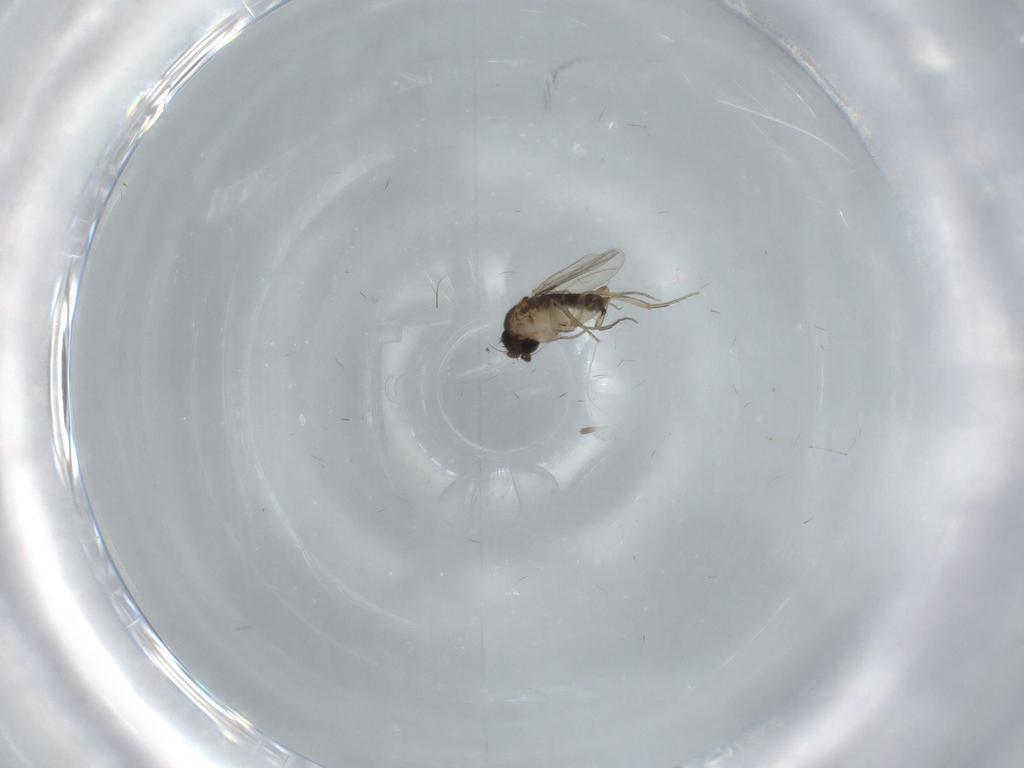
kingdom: Animalia
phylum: Arthropoda
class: Insecta
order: Diptera
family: Phoridae
